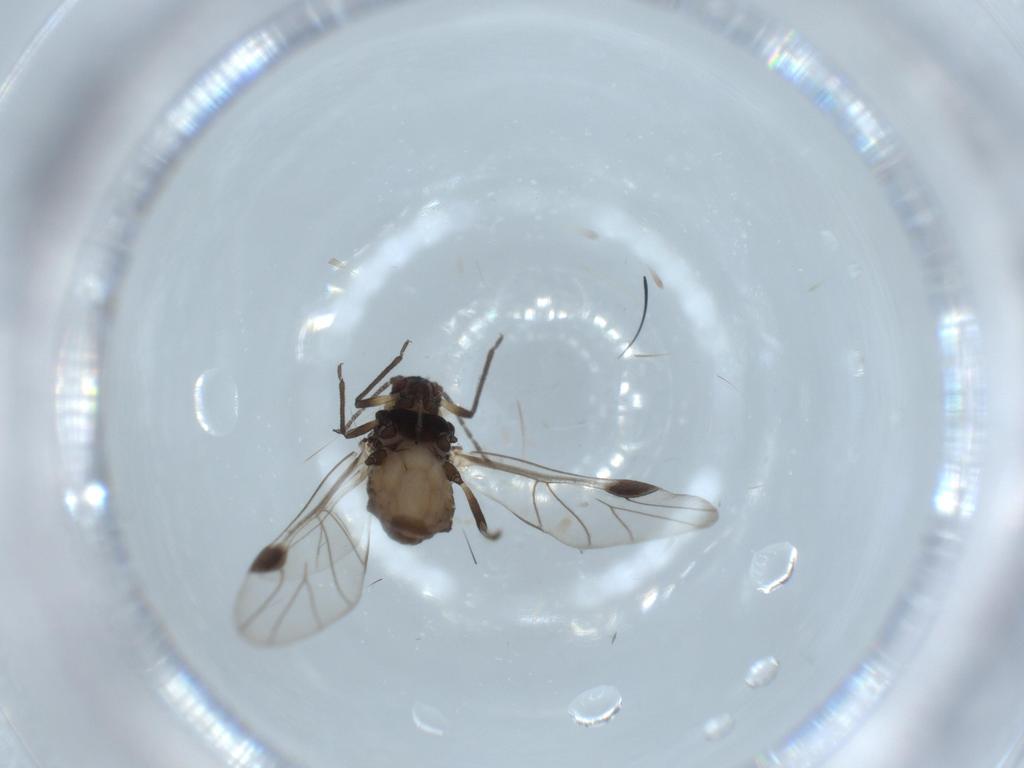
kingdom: Animalia
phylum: Arthropoda
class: Insecta
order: Hemiptera
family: Aphididae
